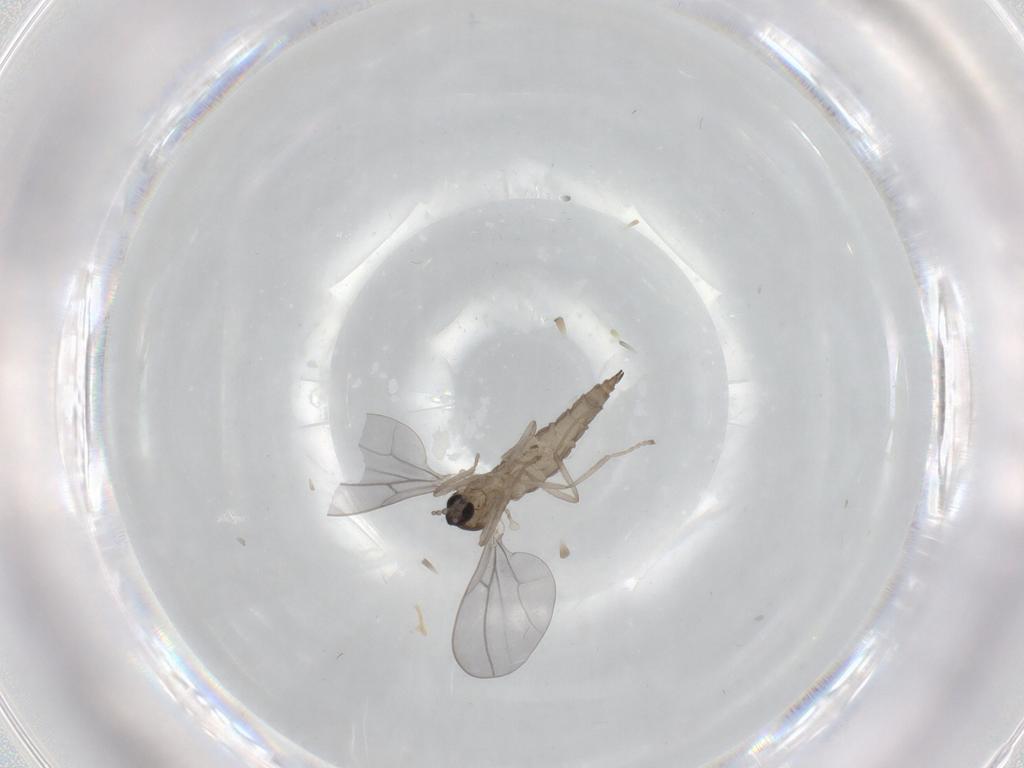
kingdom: Animalia
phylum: Arthropoda
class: Insecta
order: Diptera
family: Cecidomyiidae
